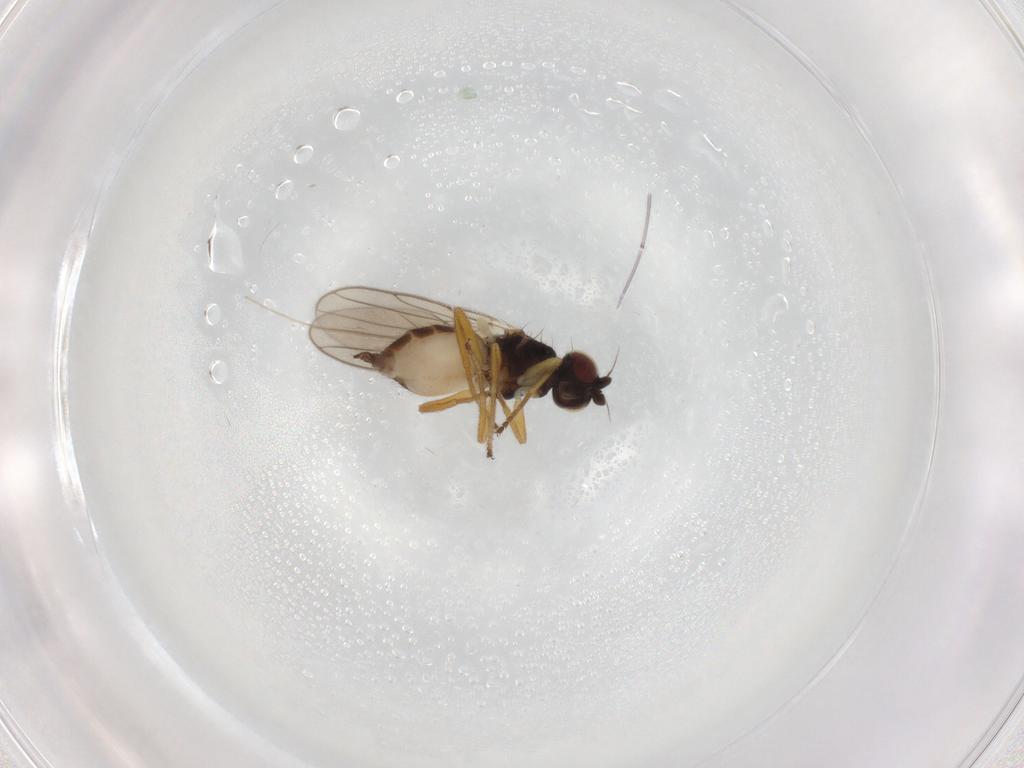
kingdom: Animalia
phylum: Arthropoda
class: Insecta
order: Diptera
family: Chloropidae
